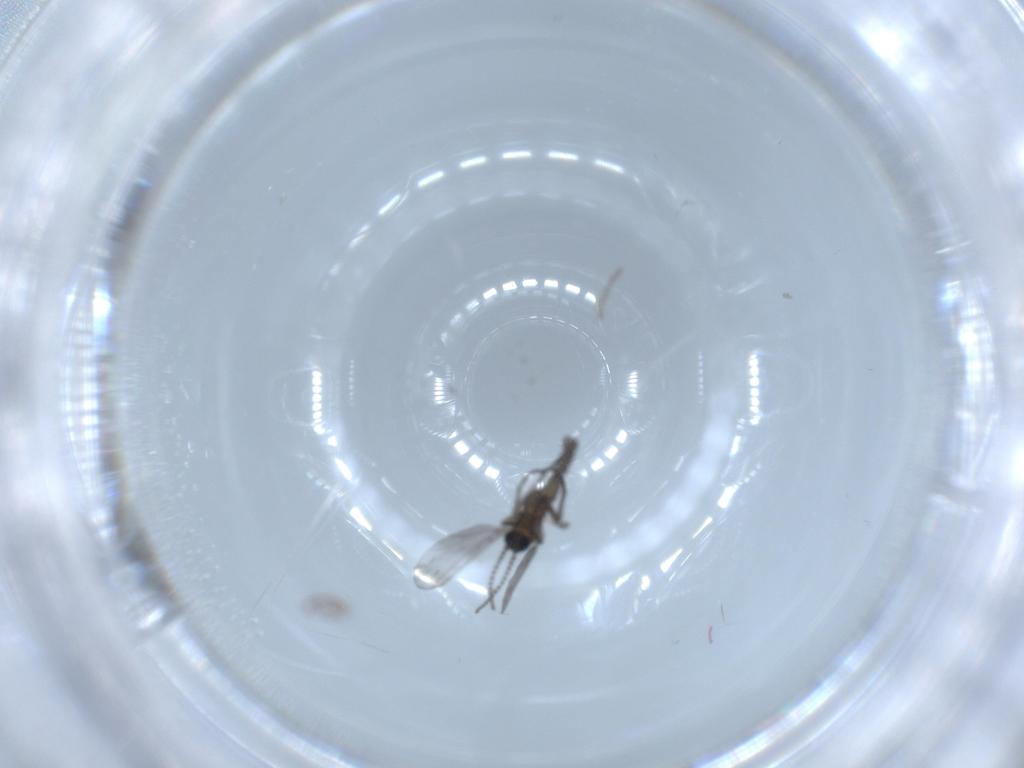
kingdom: Animalia
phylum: Arthropoda
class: Insecta
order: Diptera
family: Ceratopogonidae
